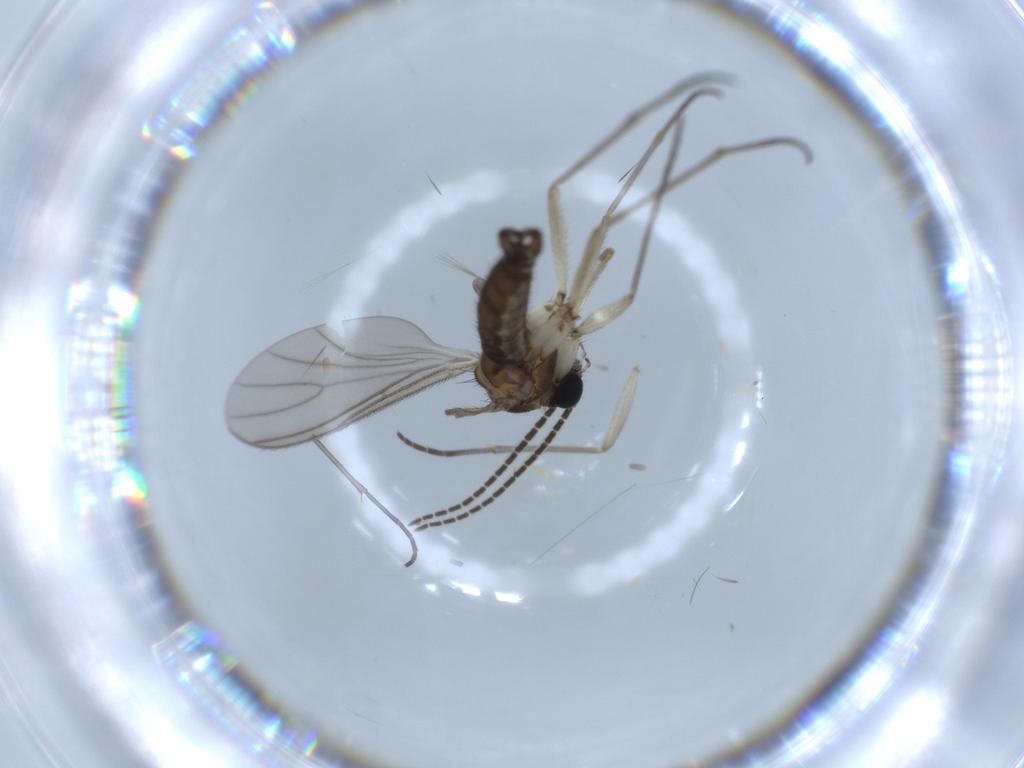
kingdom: Animalia
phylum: Arthropoda
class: Insecta
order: Diptera
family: Sciaridae
